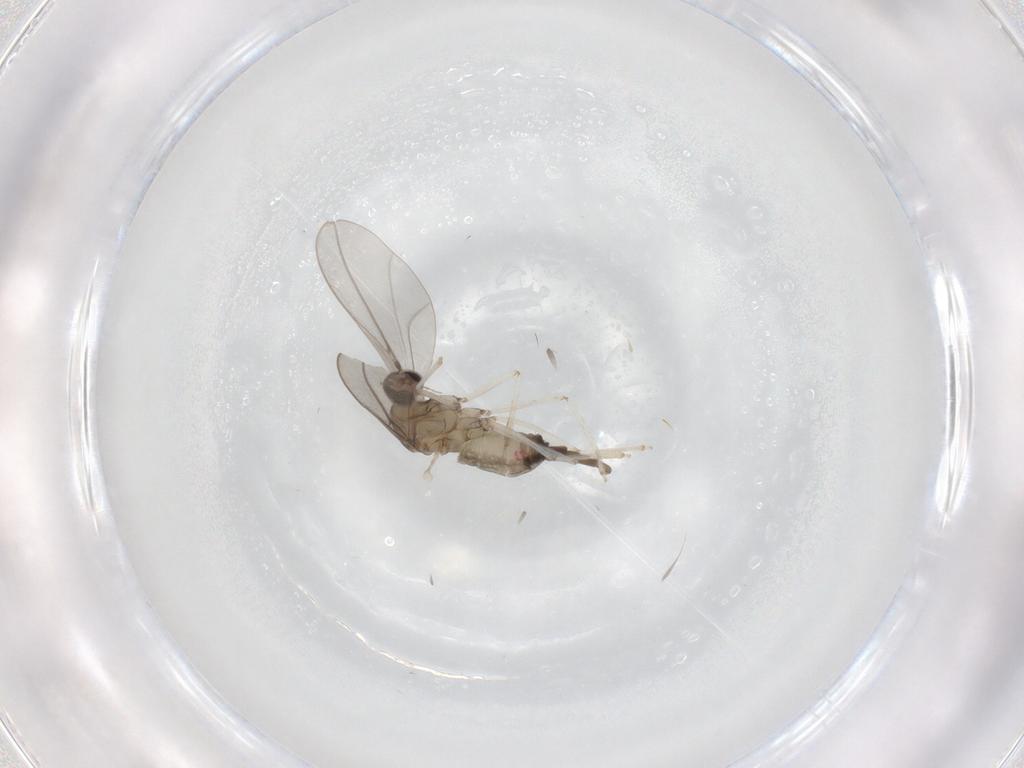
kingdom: Animalia
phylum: Arthropoda
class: Insecta
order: Diptera
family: Cecidomyiidae
